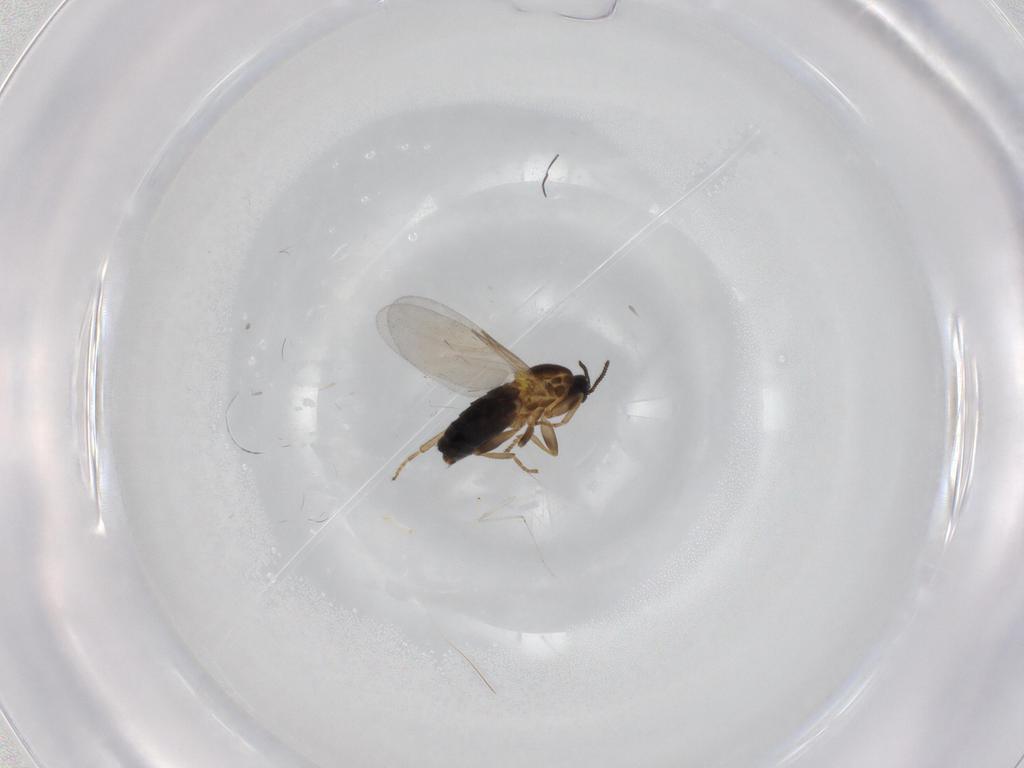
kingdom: Animalia
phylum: Arthropoda
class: Insecta
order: Diptera
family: Scatopsidae
